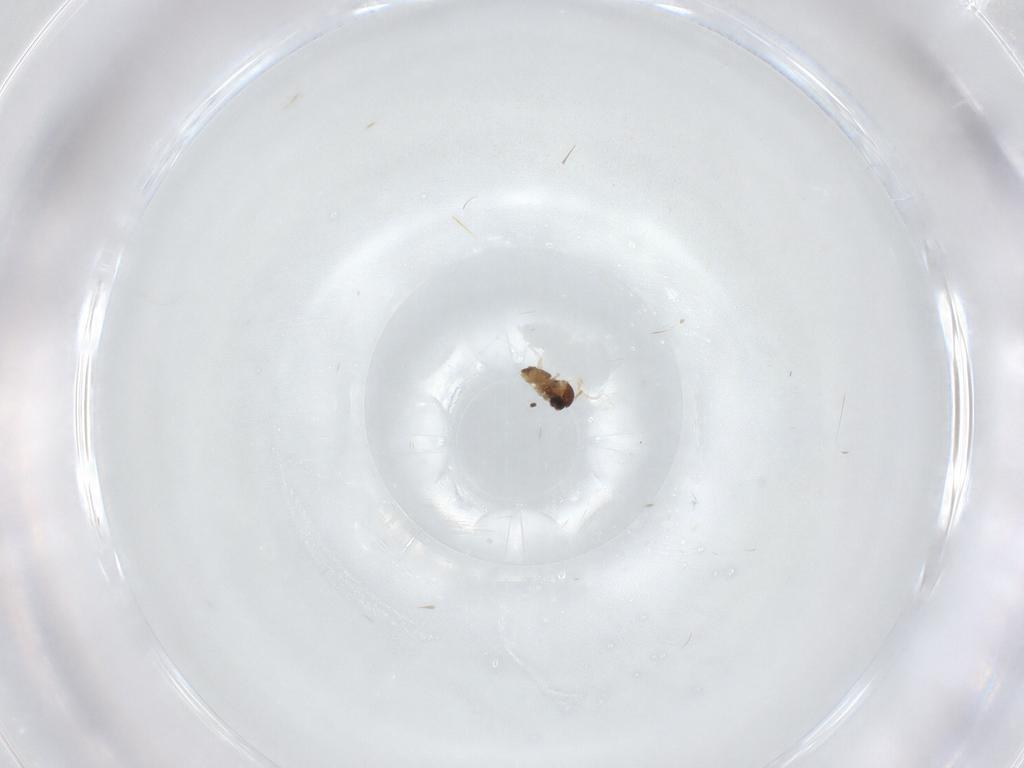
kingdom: Animalia
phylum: Arthropoda
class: Insecta
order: Diptera
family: Cecidomyiidae
